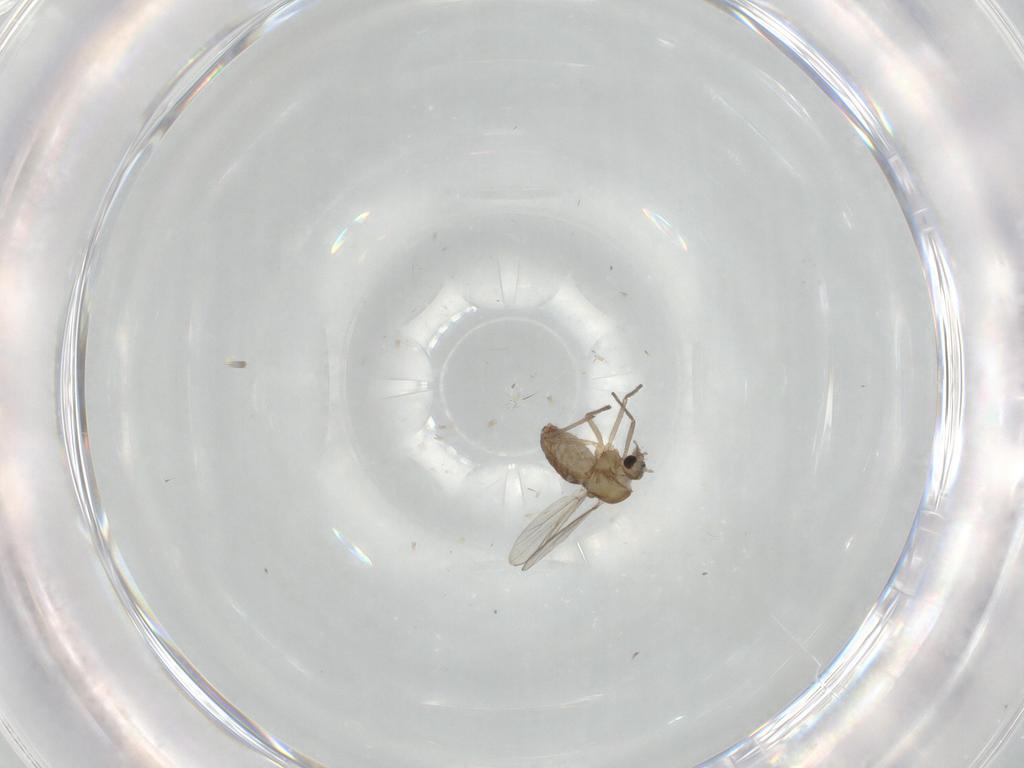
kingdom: Animalia
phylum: Arthropoda
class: Insecta
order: Diptera
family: Chironomidae
